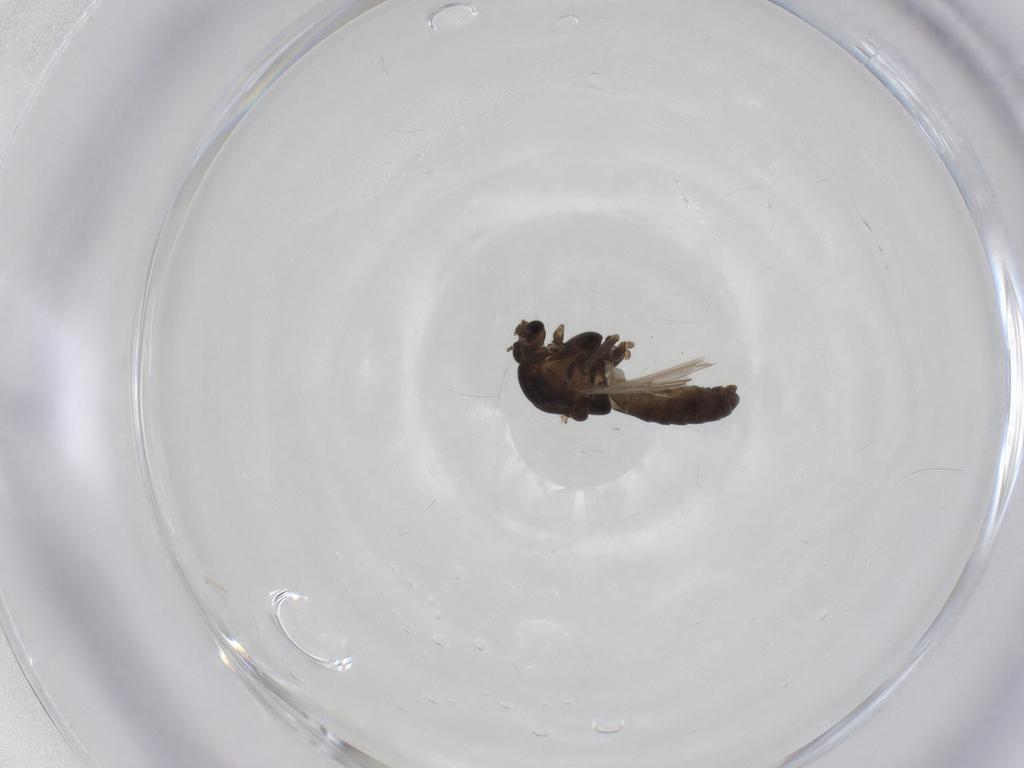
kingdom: Animalia
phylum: Arthropoda
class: Insecta
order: Diptera
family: Chironomidae
